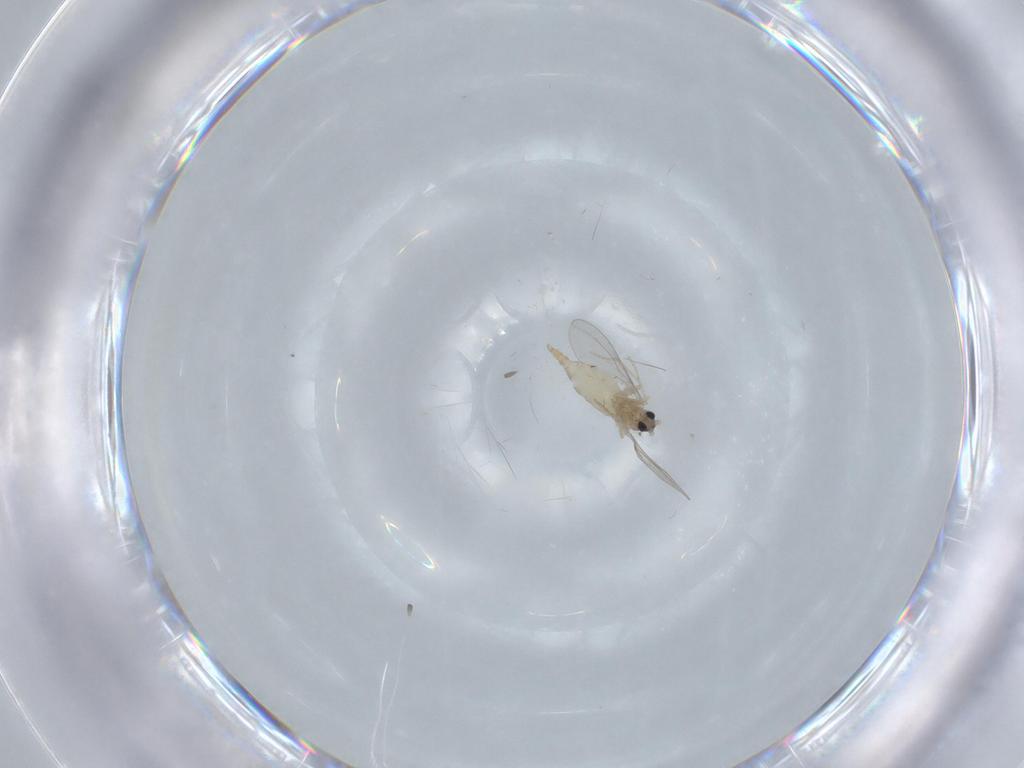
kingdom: Animalia
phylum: Arthropoda
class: Insecta
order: Diptera
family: Cecidomyiidae
